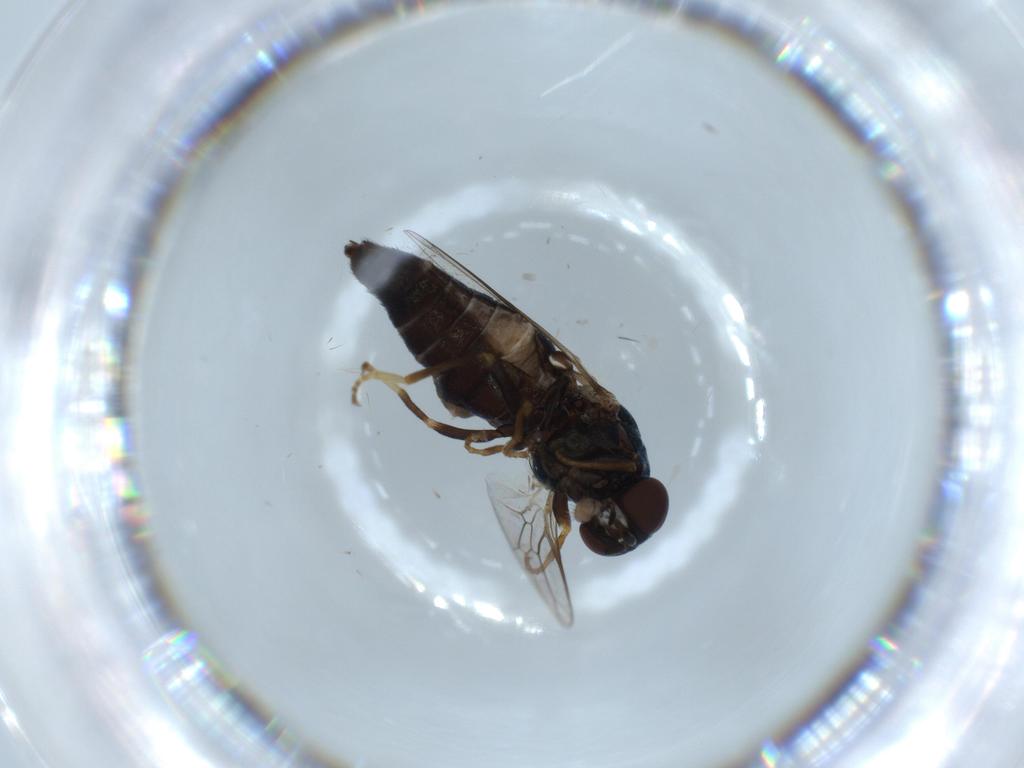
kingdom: Animalia
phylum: Arthropoda
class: Insecta
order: Diptera
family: Scenopinidae
